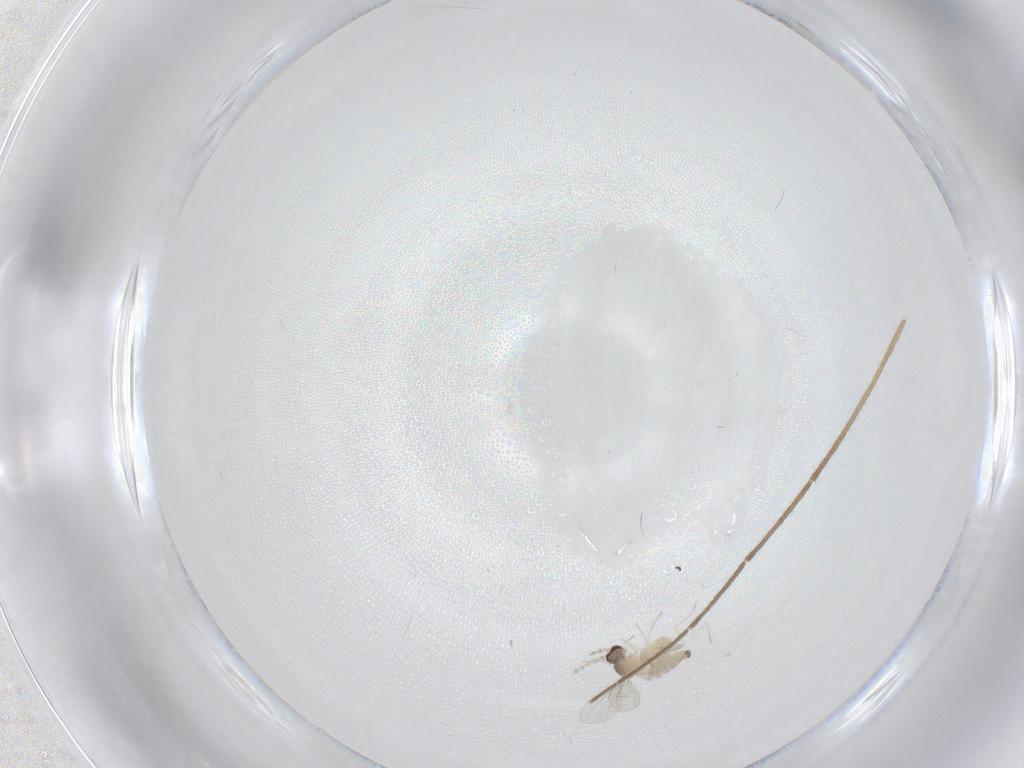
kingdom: Animalia
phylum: Arthropoda
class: Insecta
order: Diptera
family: Cecidomyiidae
